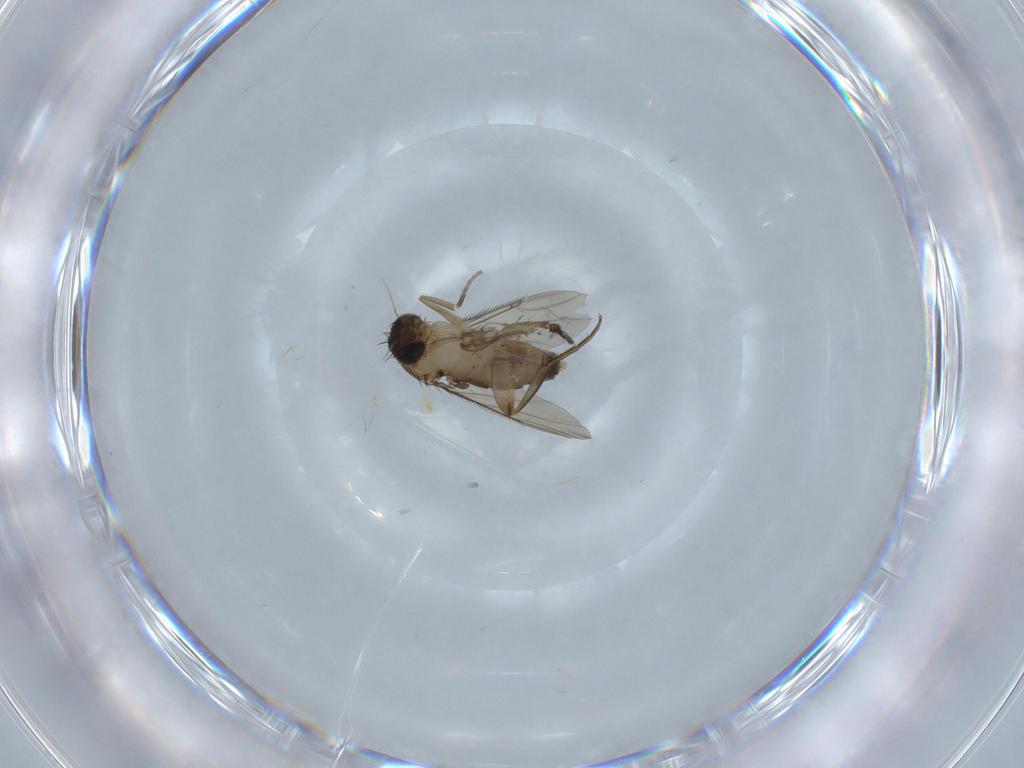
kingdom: Animalia
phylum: Arthropoda
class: Insecta
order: Diptera
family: Phoridae
